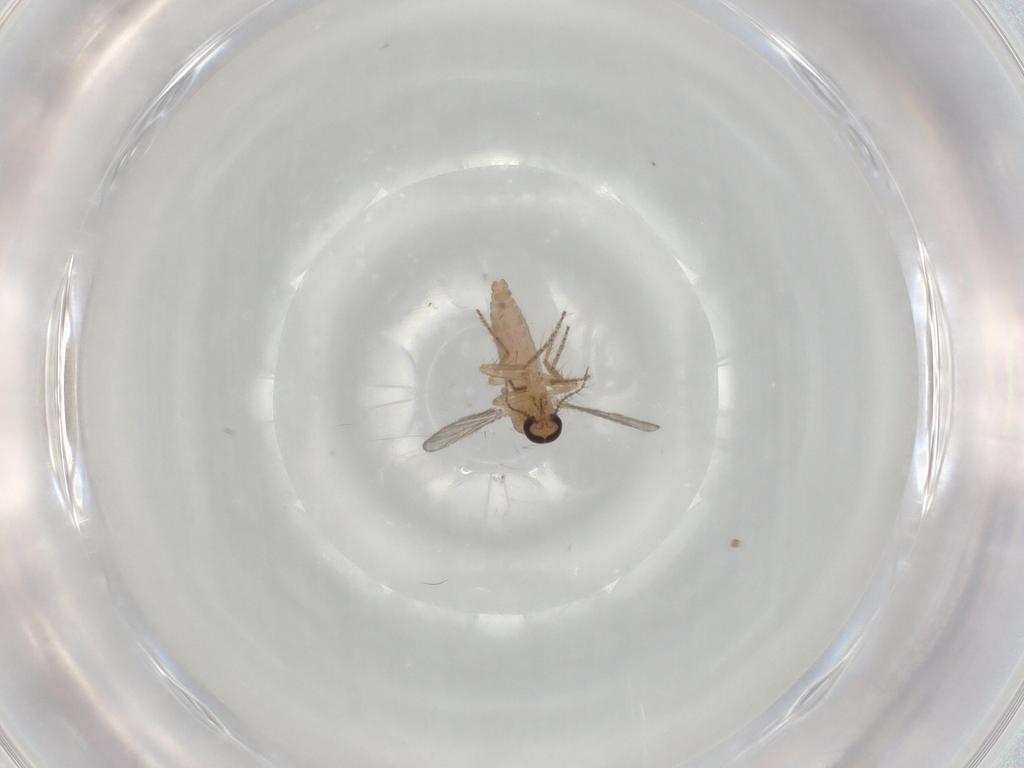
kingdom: Animalia
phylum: Arthropoda
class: Insecta
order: Diptera
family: Ceratopogonidae
